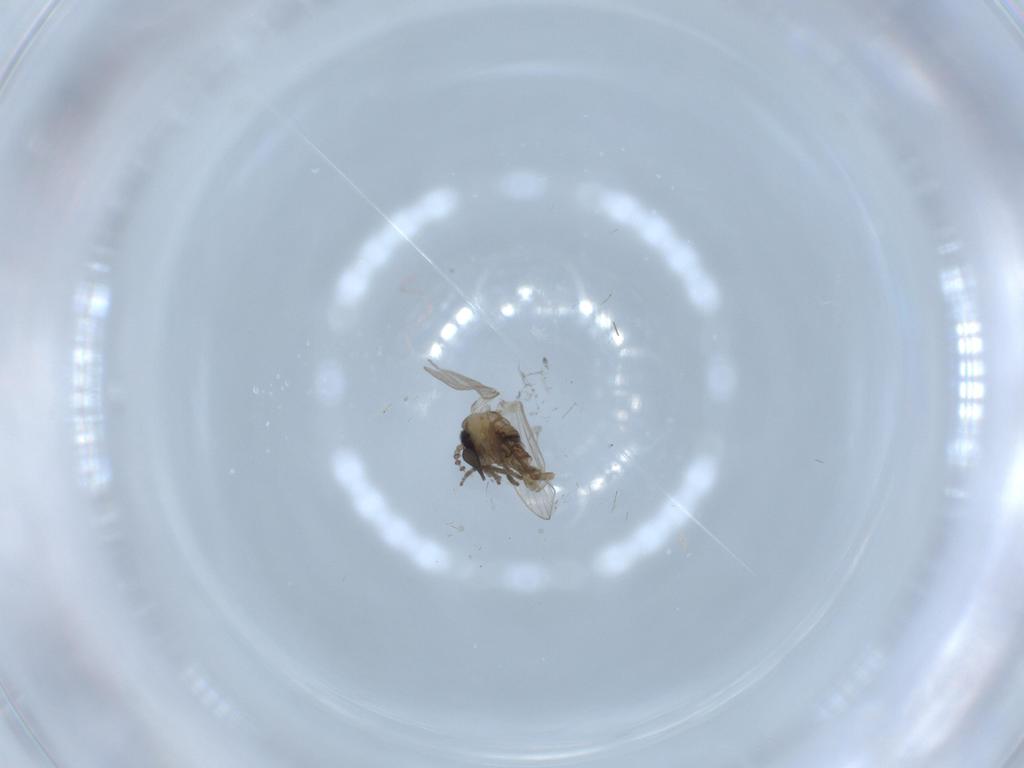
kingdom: Animalia
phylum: Arthropoda
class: Insecta
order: Diptera
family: Psychodidae
